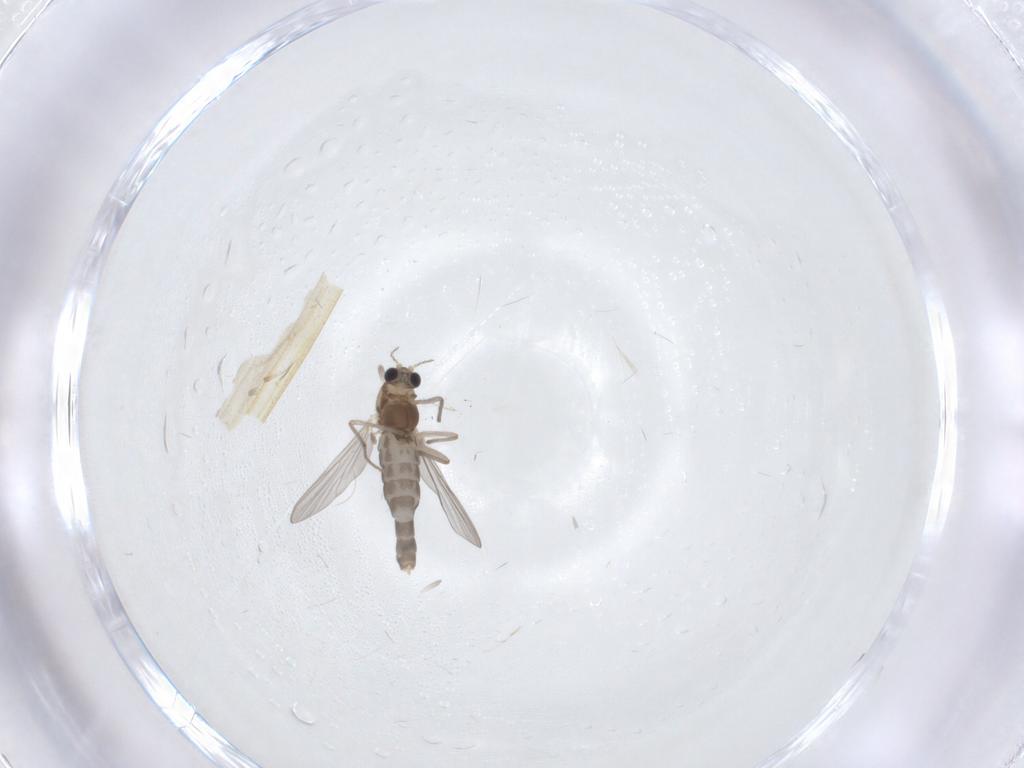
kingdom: Animalia
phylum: Arthropoda
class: Insecta
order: Diptera
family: Chironomidae
